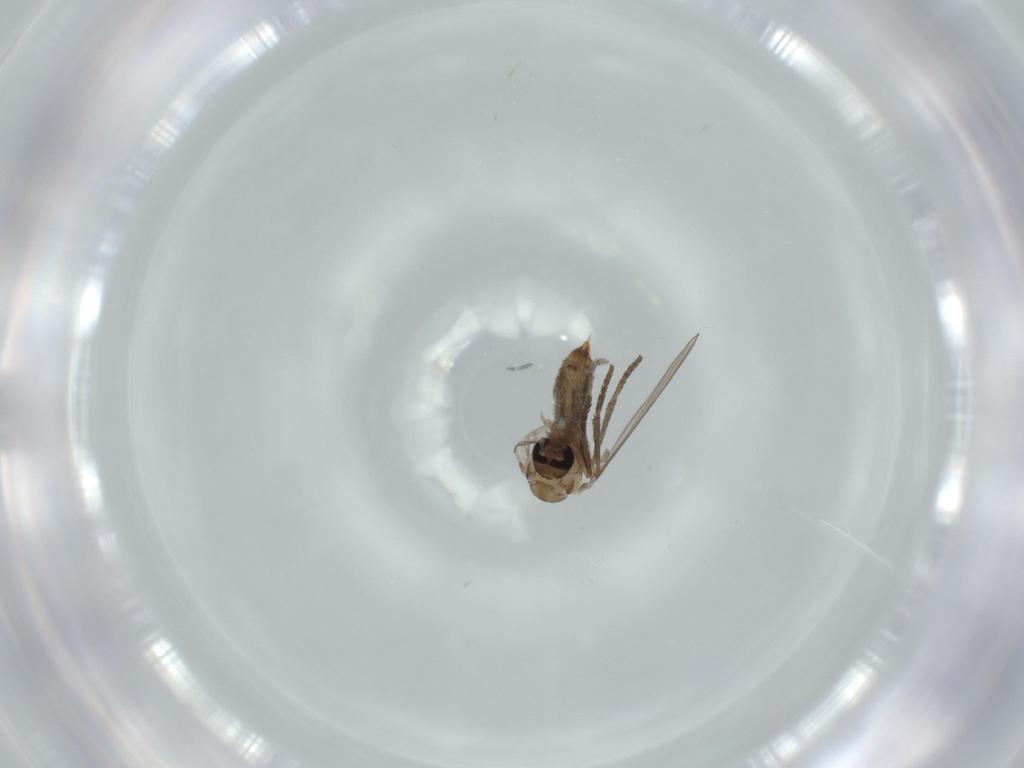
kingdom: Animalia
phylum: Arthropoda
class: Insecta
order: Diptera
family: Psychodidae
